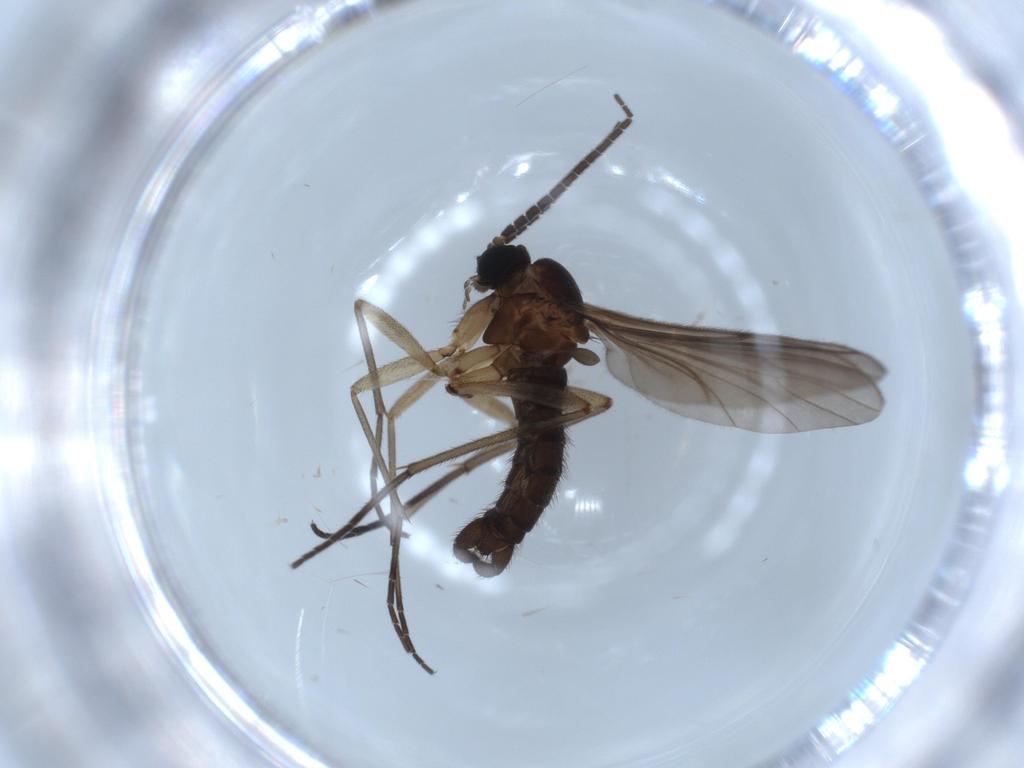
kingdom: Animalia
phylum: Arthropoda
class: Insecta
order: Diptera
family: Sciaridae
